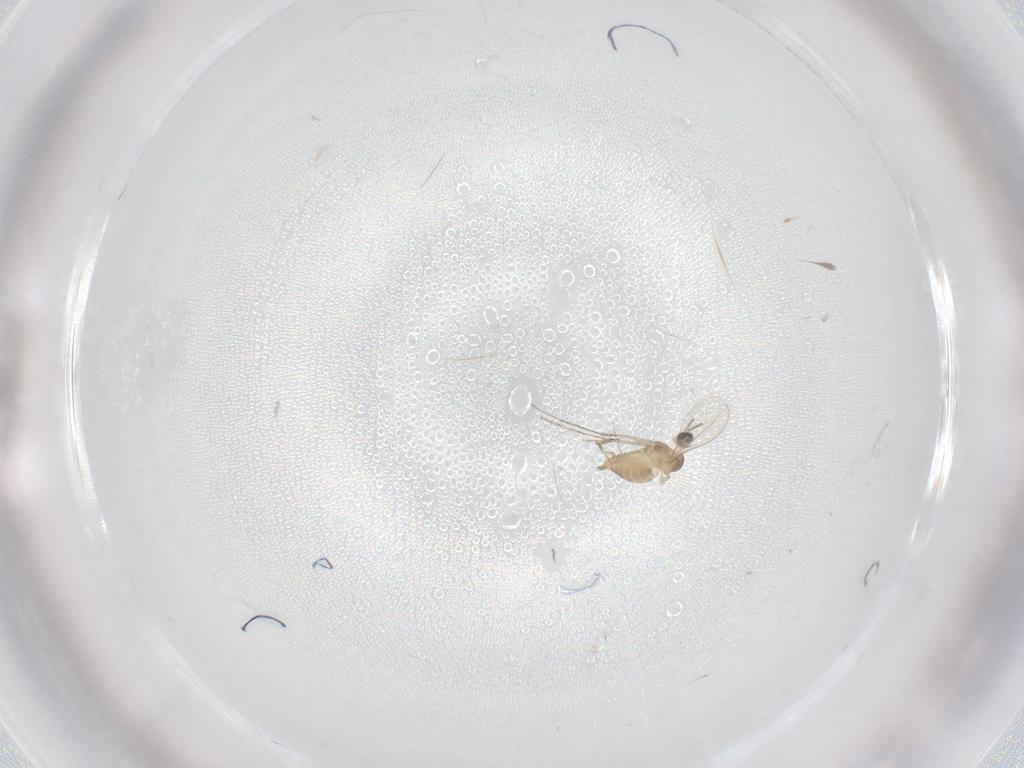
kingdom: Animalia
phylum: Arthropoda
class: Insecta
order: Diptera
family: Cecidomyiidae
